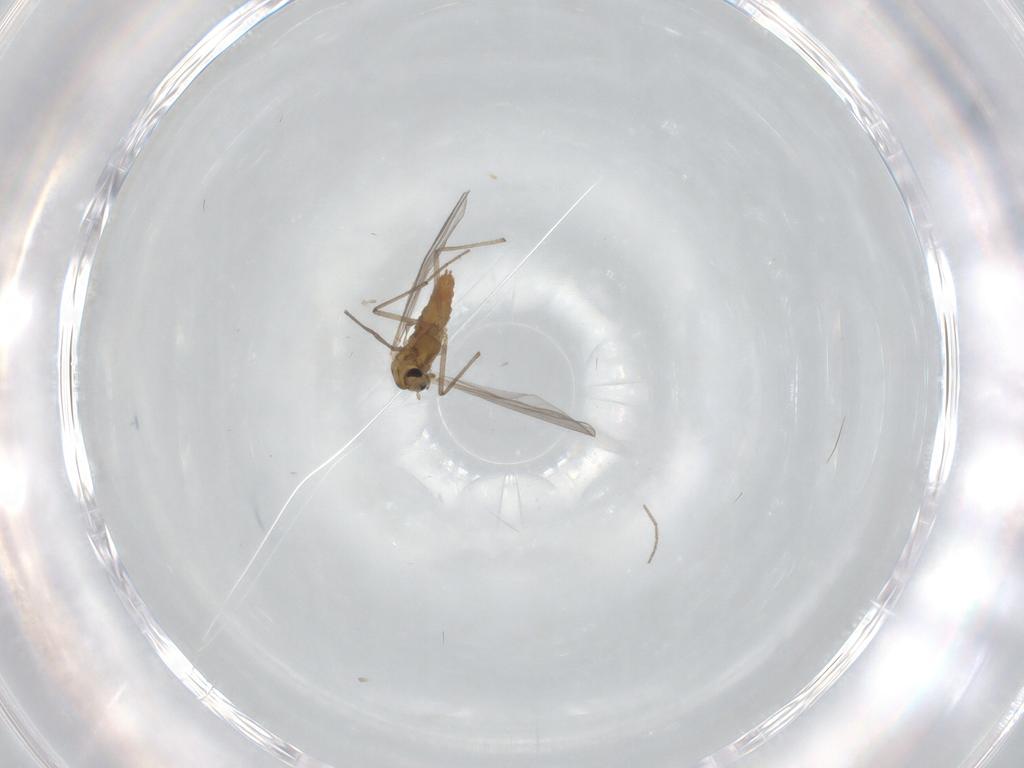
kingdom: Animalia
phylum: Arthropoda
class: Insecta
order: Diptera
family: Chironomidae
